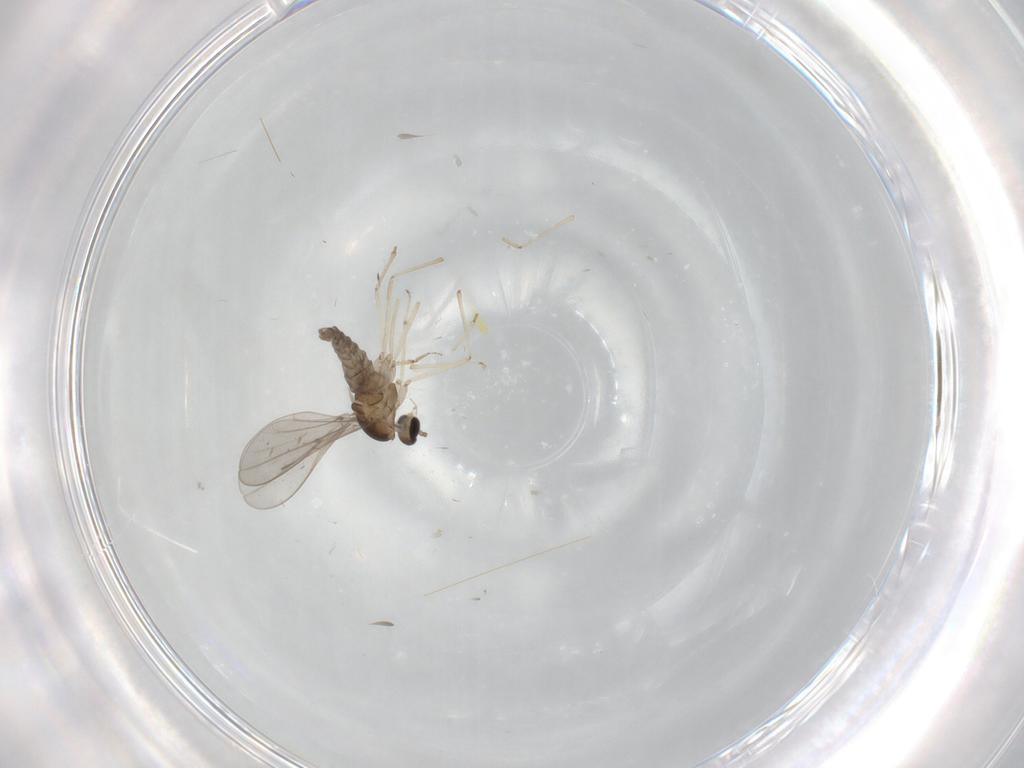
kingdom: Animalia
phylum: Arthropoda
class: Insecta
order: Diptera
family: Cecidomyiidae
